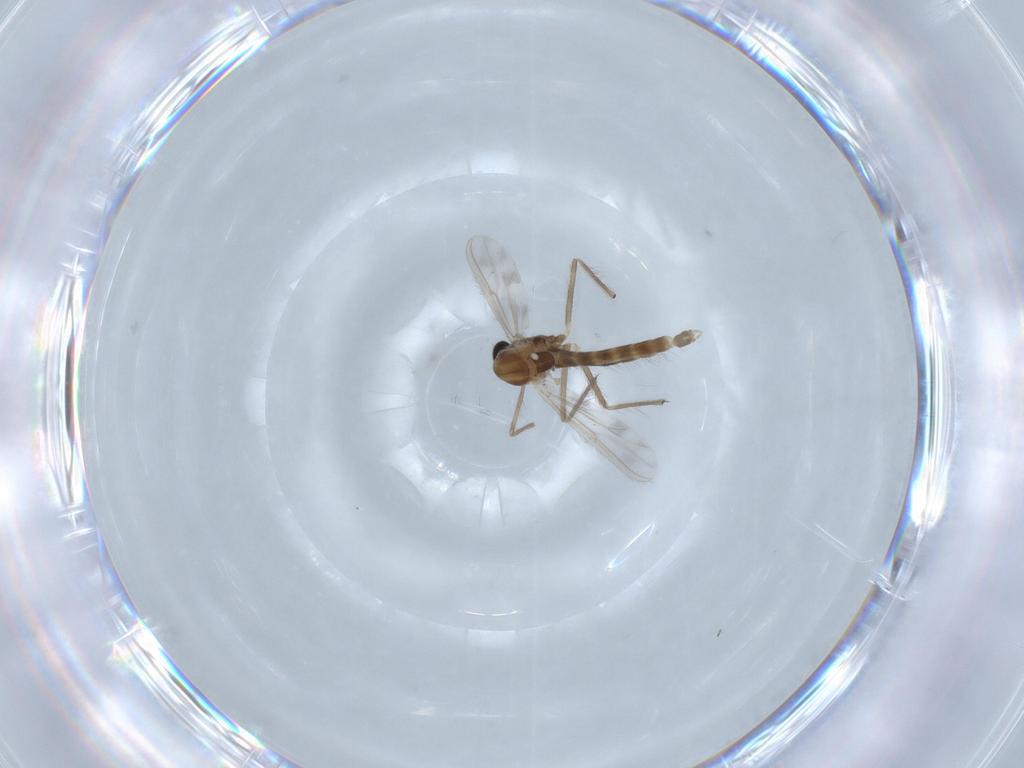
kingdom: Animalia
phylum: Arthropoda
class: Insecta
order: Diptera
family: Chironomidae
